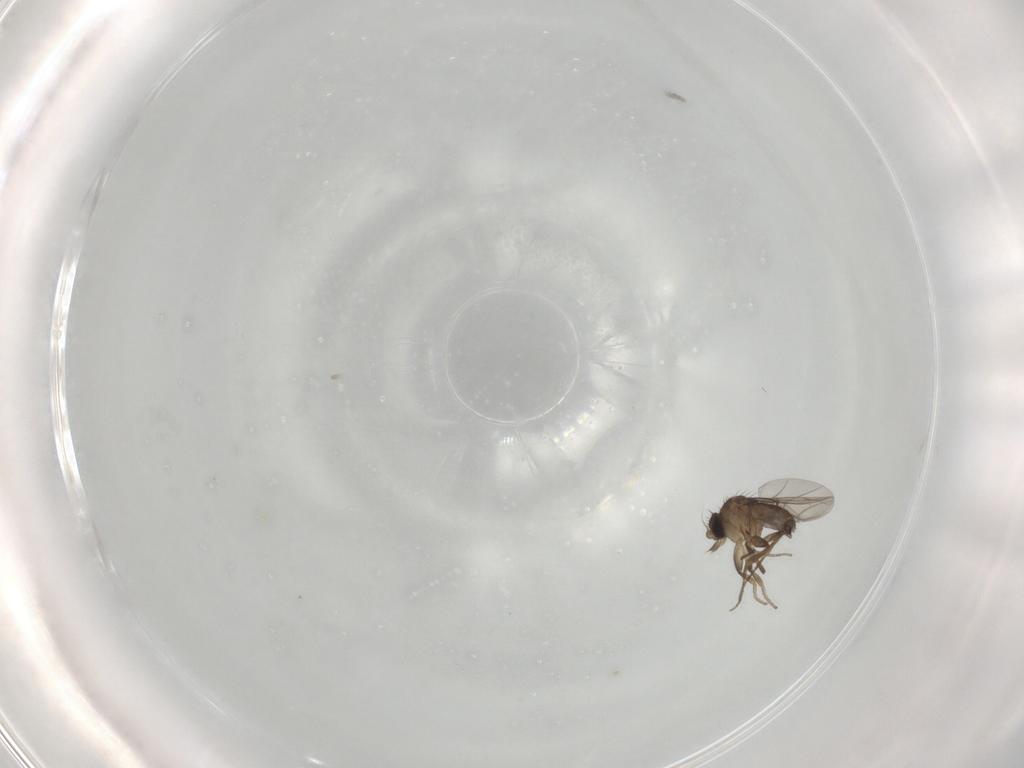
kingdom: Animalia
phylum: Arthropoda
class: Insecta
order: Diptera
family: Phoridae
